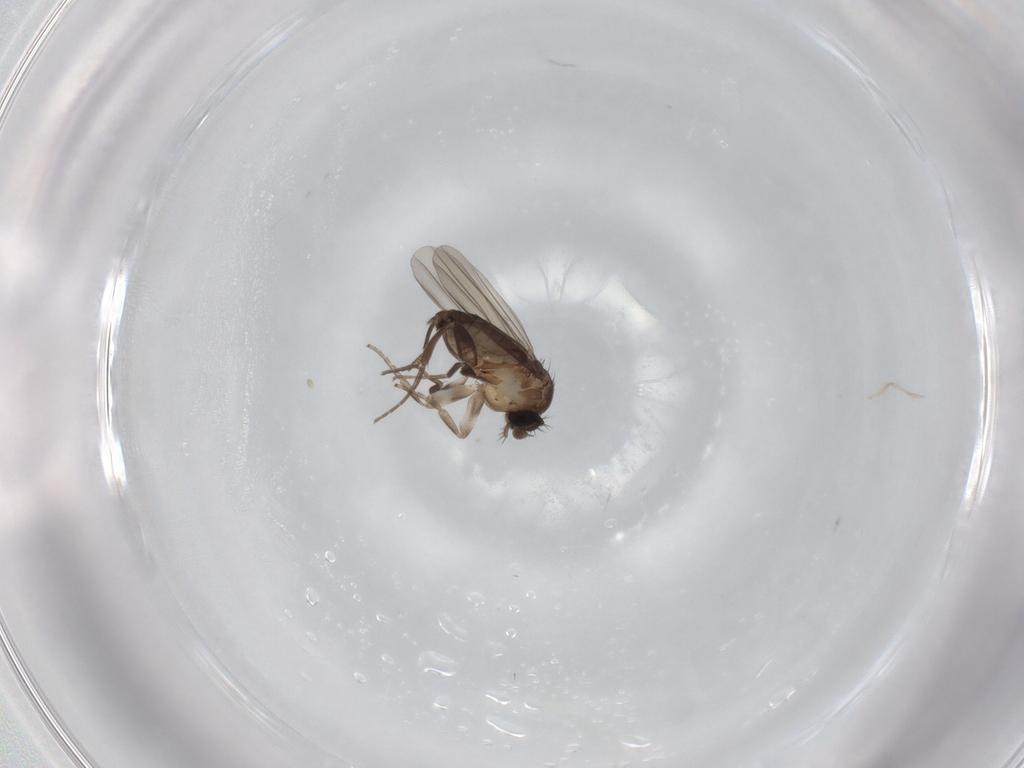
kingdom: Animalia
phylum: Arthropoda
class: Insecta
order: Diptera
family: Phoridae
